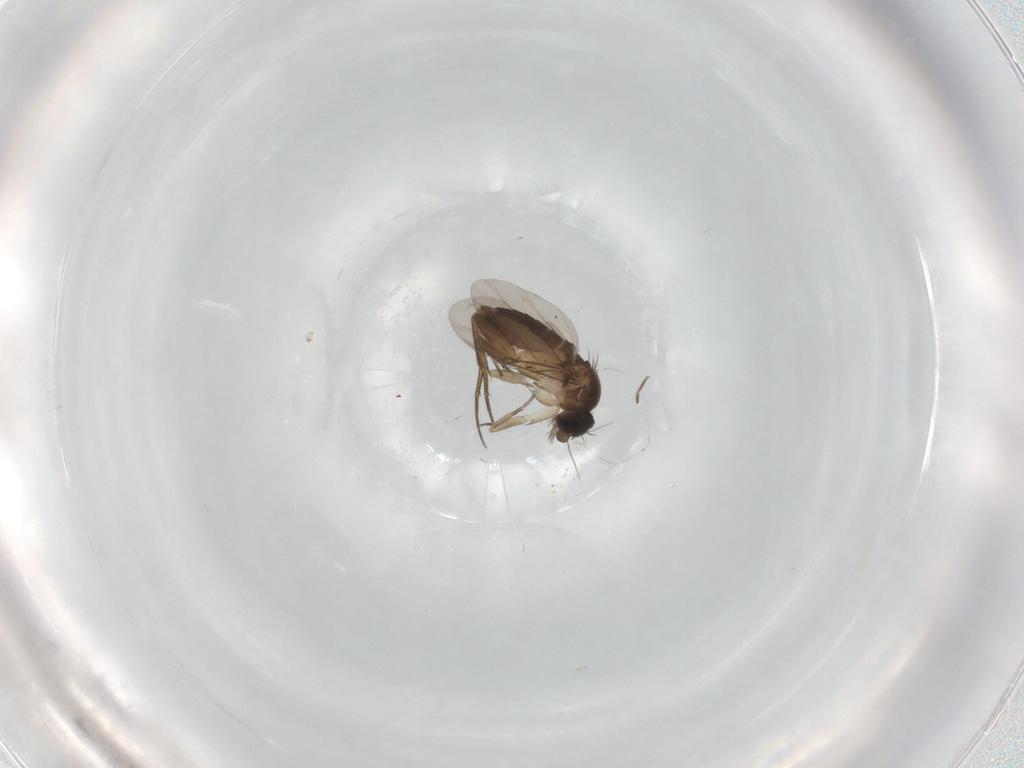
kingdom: Animalia
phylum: Arthropoda
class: Insecta
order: Diptera
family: Phoridae
